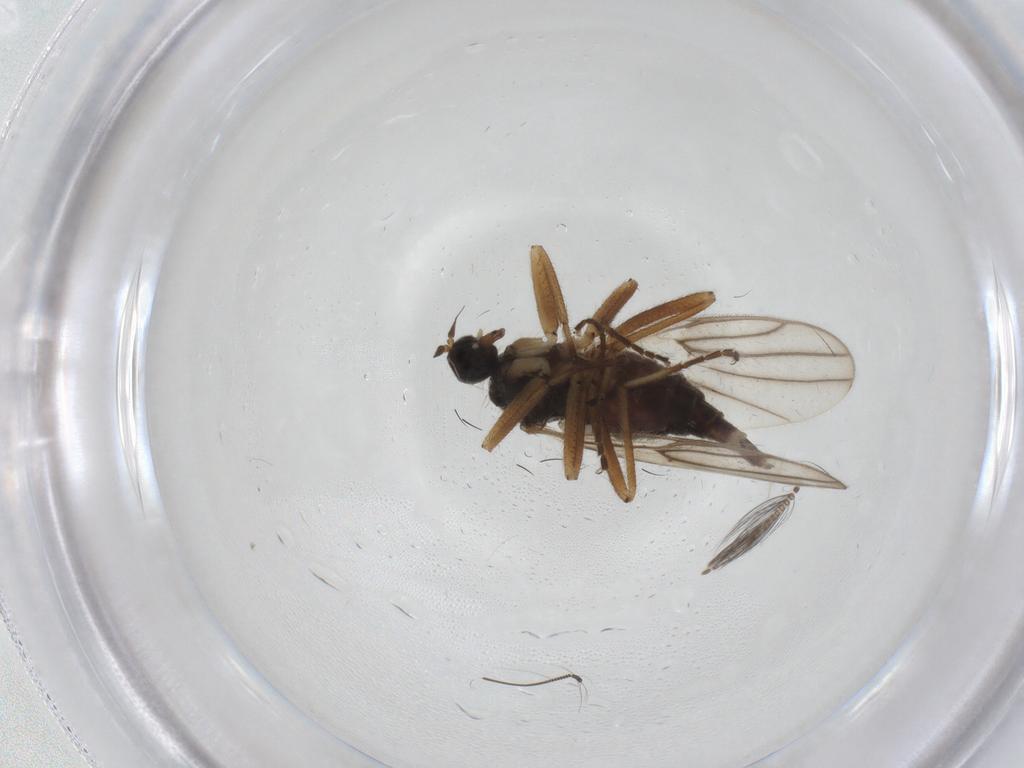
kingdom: Animalia
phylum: Arthropoda
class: Insecta
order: Diptera
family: Hybotidae
